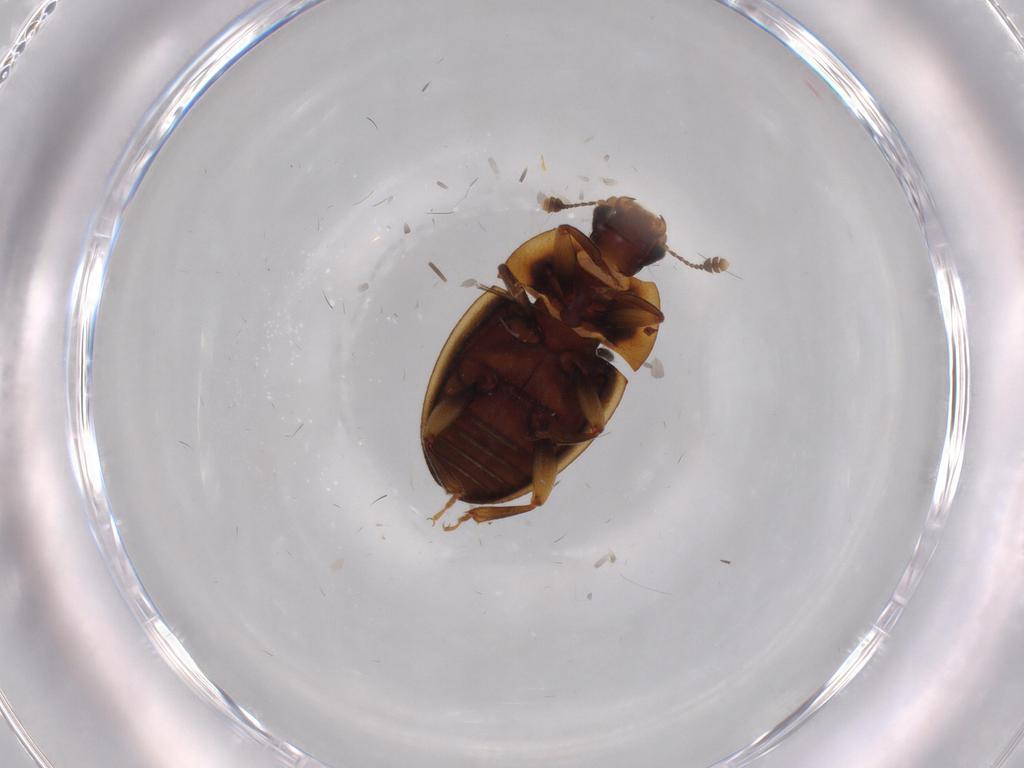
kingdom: Animalia
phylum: Arthropoda
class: Insecta
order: Coleoptera
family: Nitidulidae
